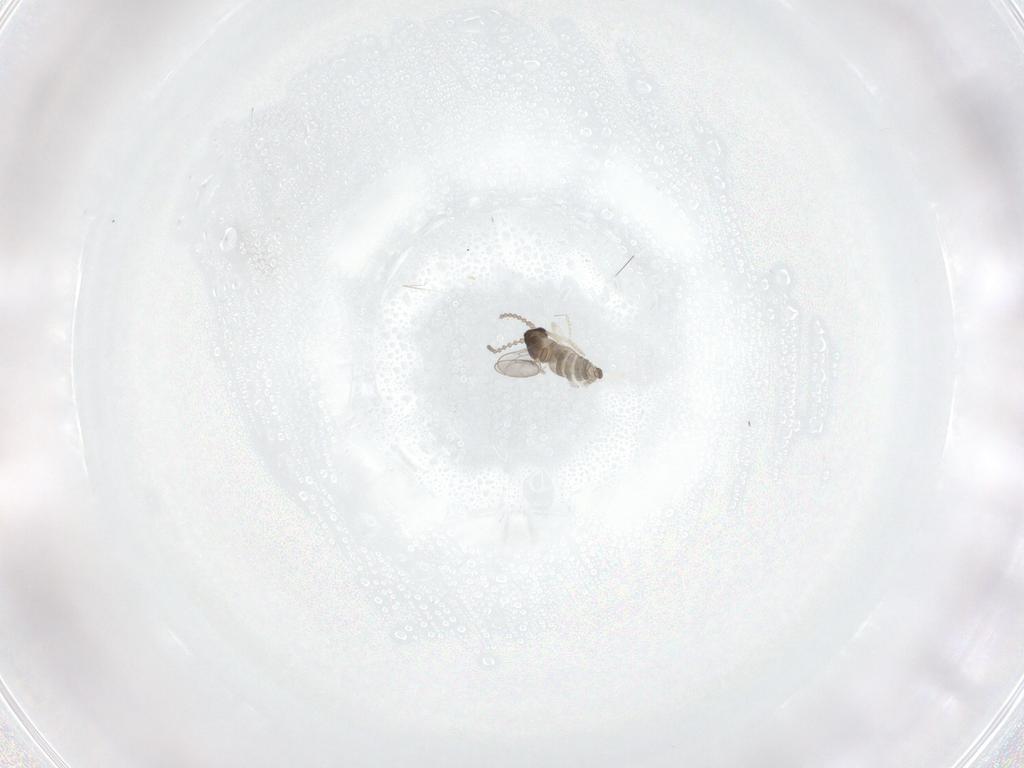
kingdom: Animalia
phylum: Arthropoda
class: Insecta
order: Diptera
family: Cecidomyiidae
